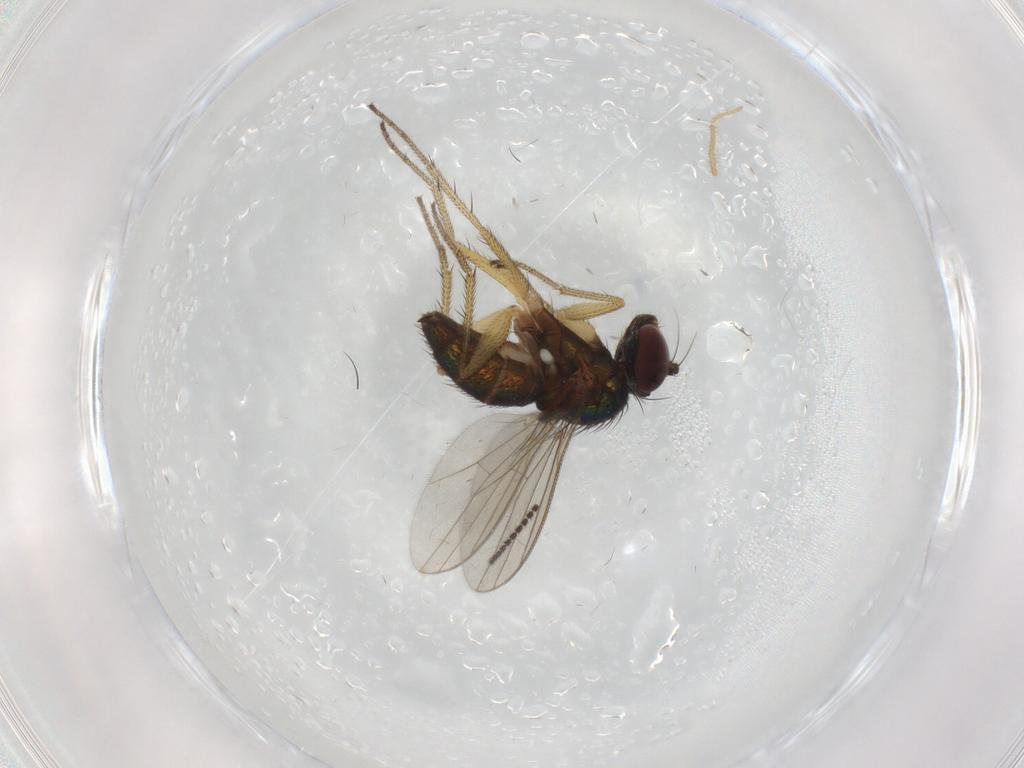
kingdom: Animalia
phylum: Arthropoda
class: Insecta
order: Diptera
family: Chironomidae
